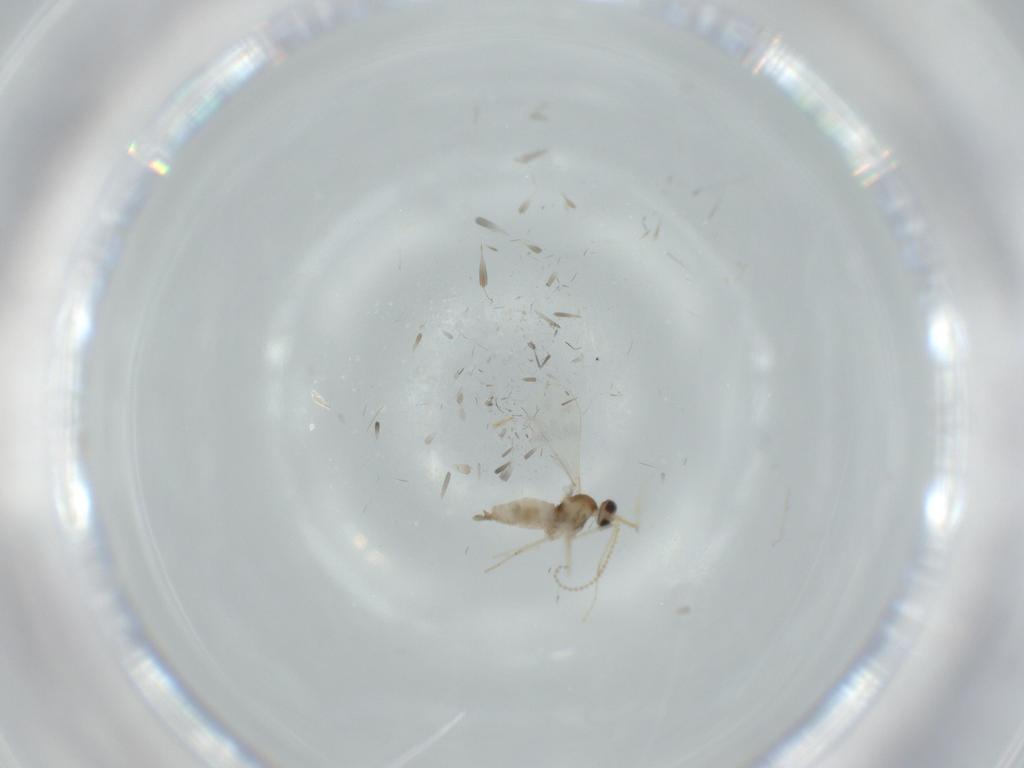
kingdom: Animalia
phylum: Arthropoda
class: Insecta
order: Diptera
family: Cecidomyiidae
